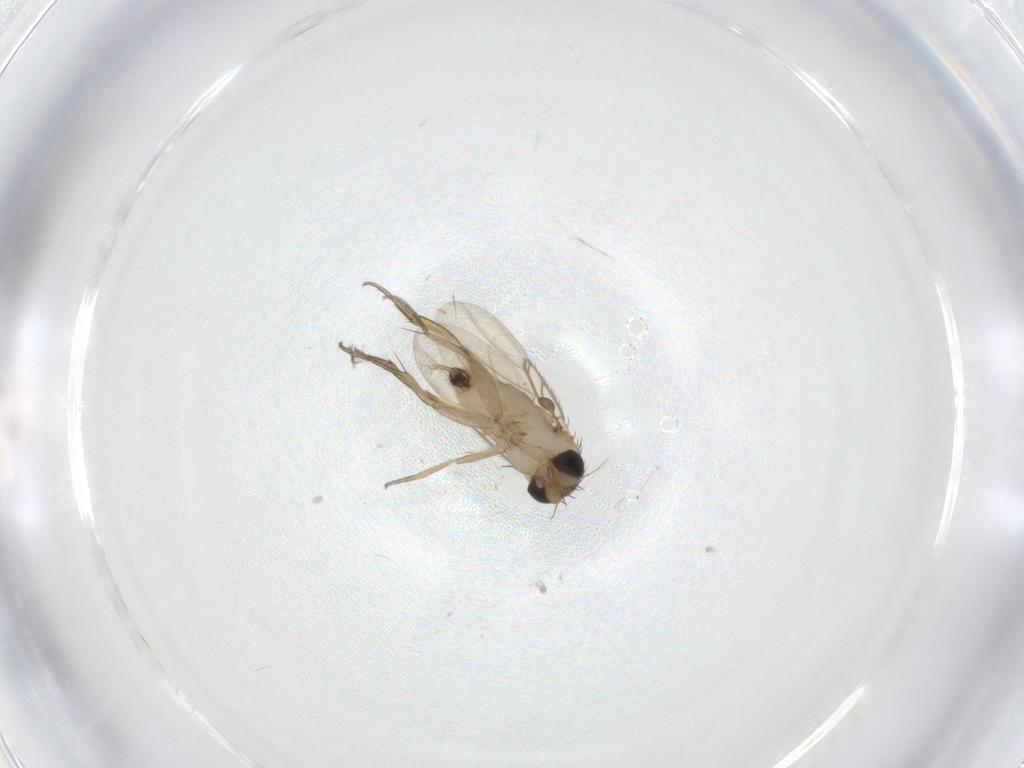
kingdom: Animalia
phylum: Arthropoda
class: Insecta
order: Diptera
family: Phoridae
